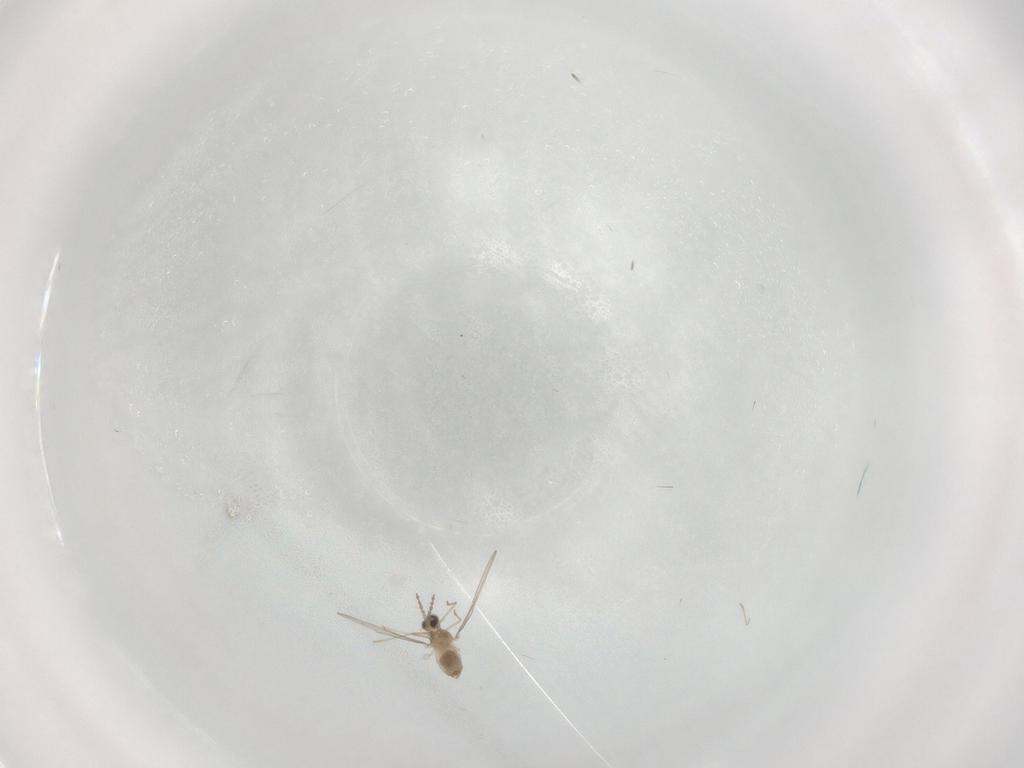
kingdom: Animalia
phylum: Arthropoda
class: Insecta
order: Diptera
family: Cecidomyiidae
